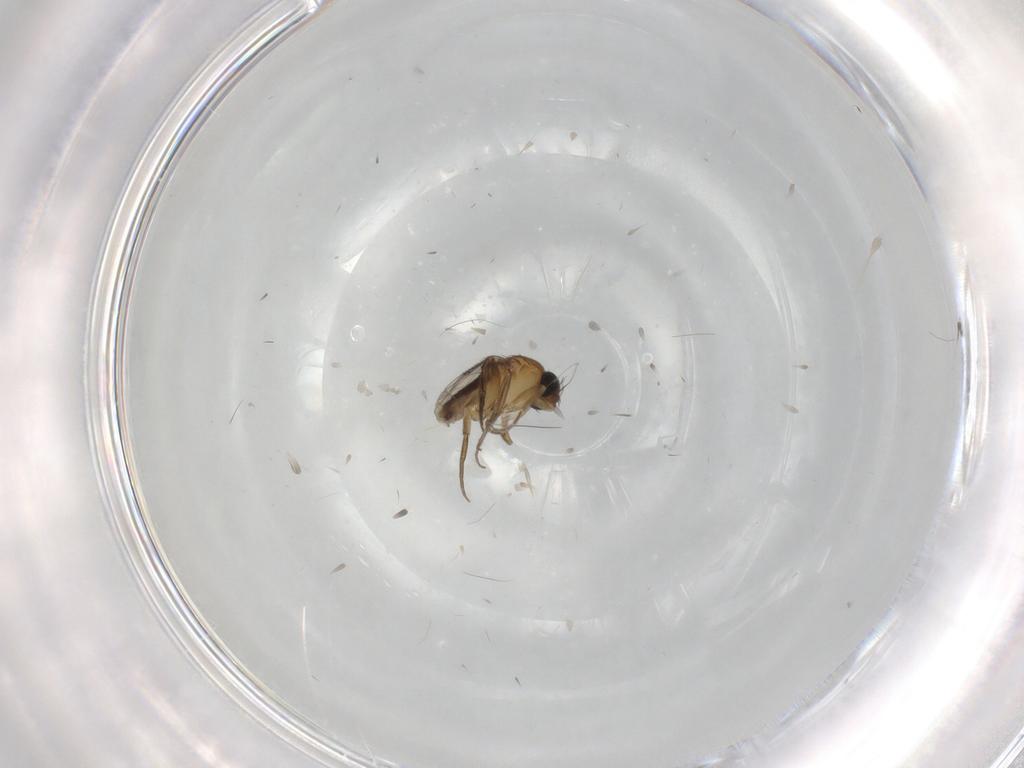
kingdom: Animalia
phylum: Arthropoda
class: Insecta
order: Diptera
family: Phoridae
